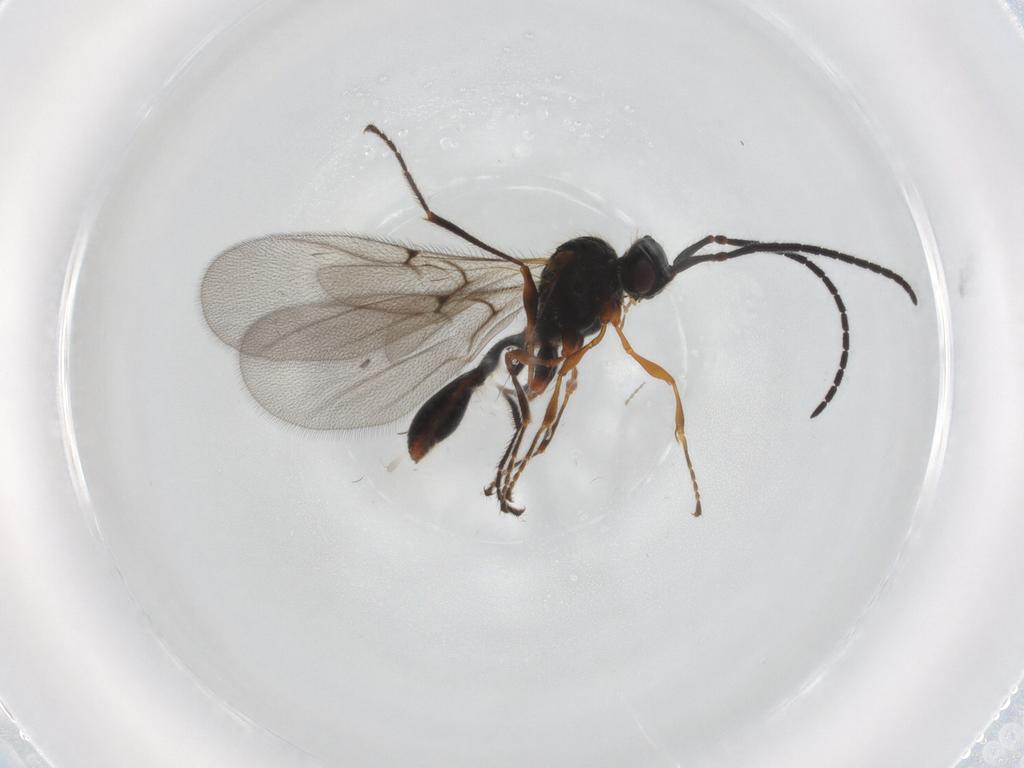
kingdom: Animalia
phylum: Arthropoda
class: Insecta
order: Hymenoptera
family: Diapriidae
